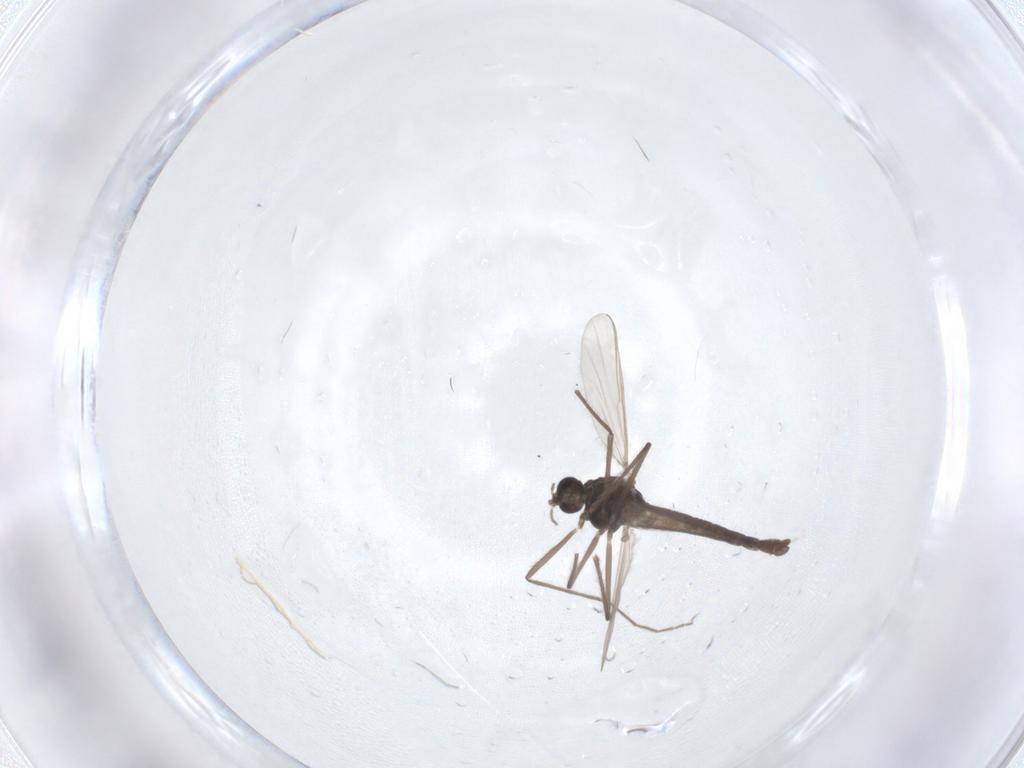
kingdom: Animalia
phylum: Arthropoda
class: Insecta
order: Diptera
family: Chironomidae
